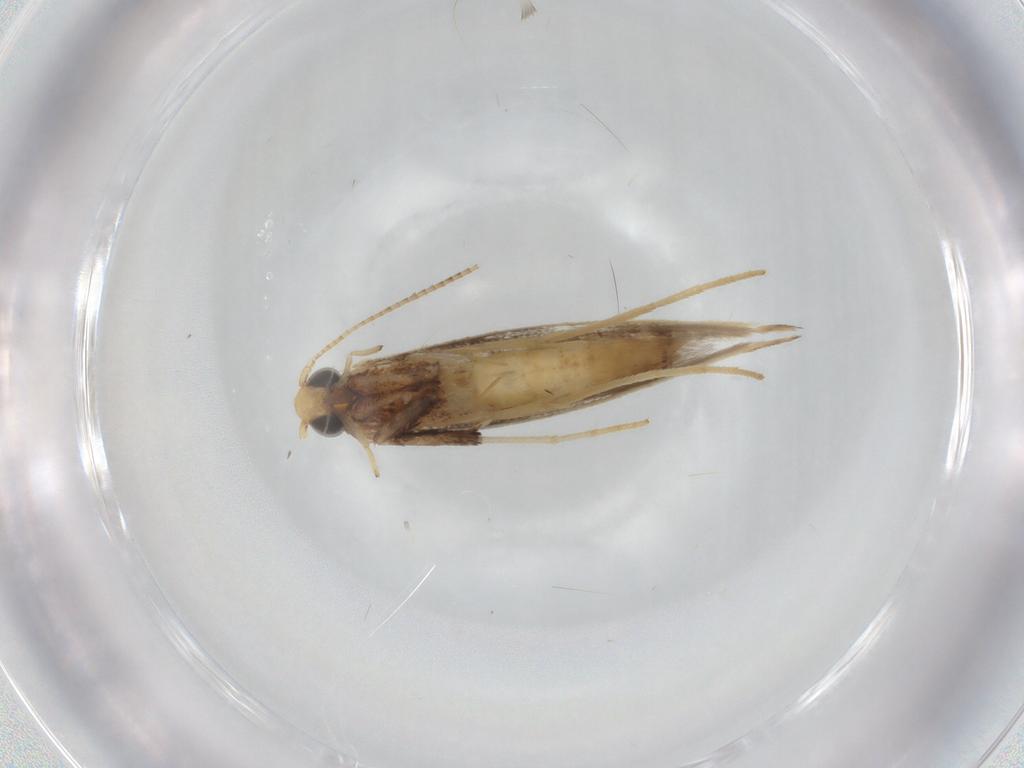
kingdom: Animalia
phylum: Arthropoda
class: Insecta
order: Lepidoptera
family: Gracillariidae
